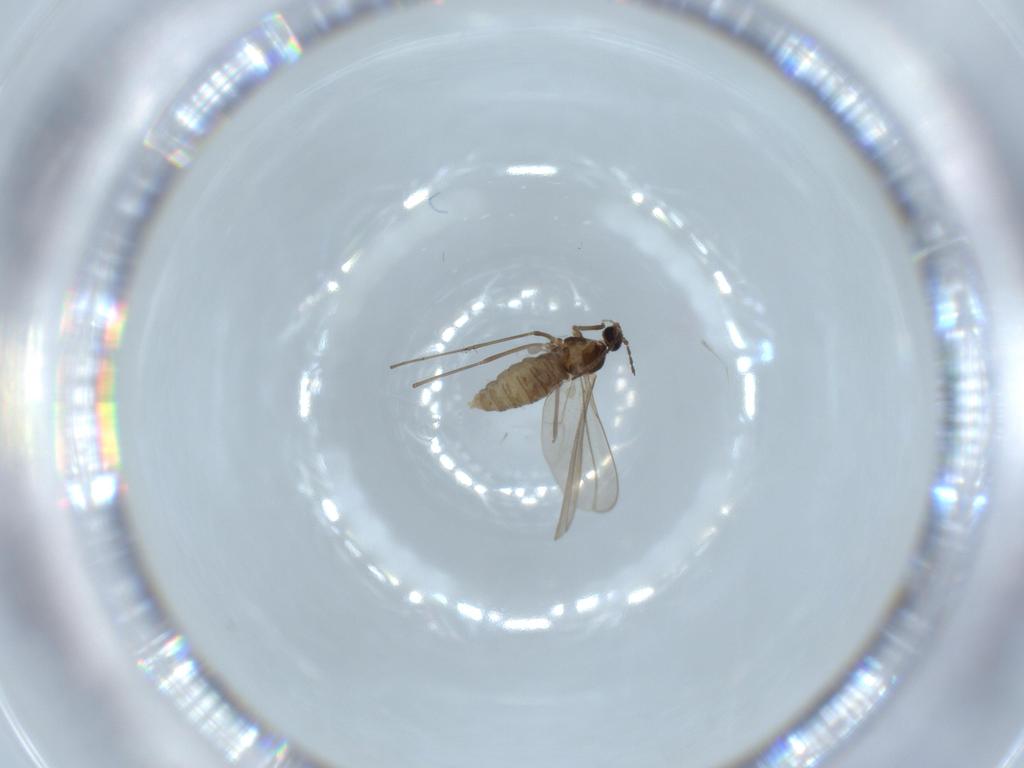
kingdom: Animalia
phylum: Arthropoda
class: Insecta
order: Diptera
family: Cecidomyiidae
